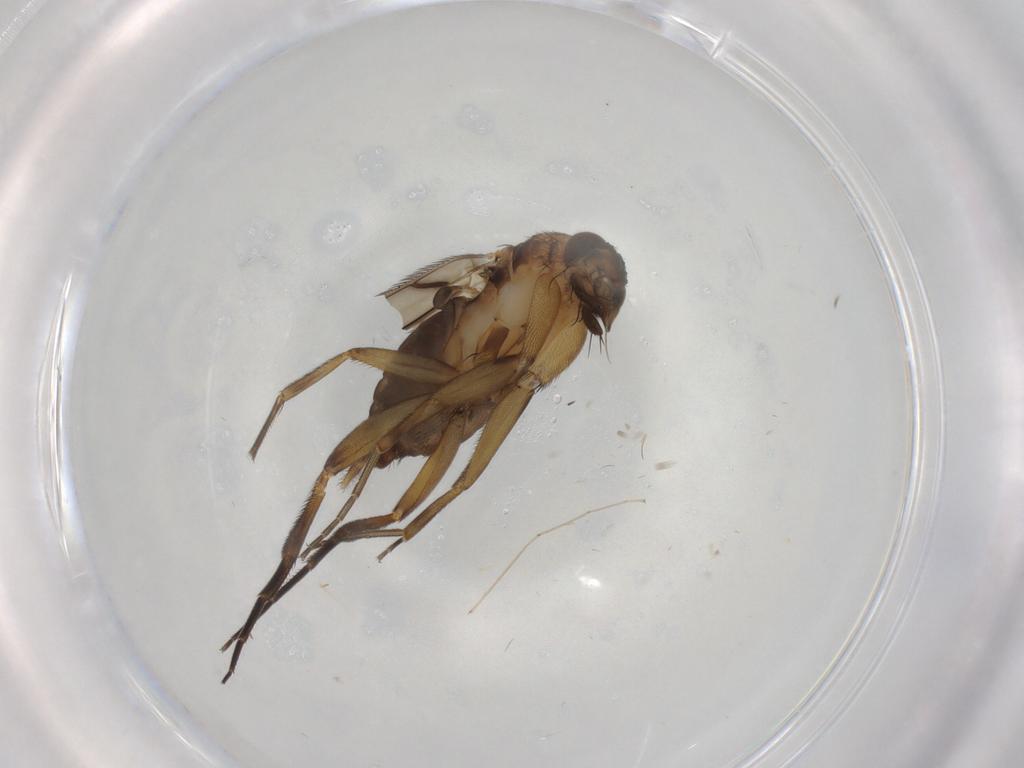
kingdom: Animalia
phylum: Arthropoda
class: Insecta
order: Diptera
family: Phoridae
